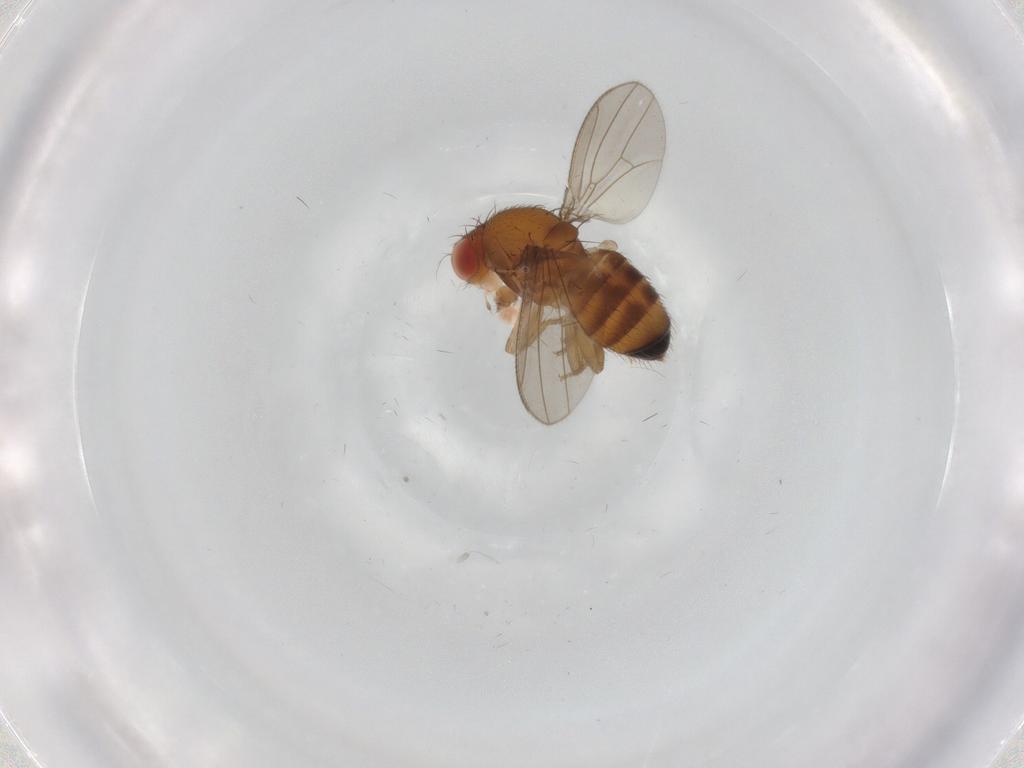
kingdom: Animalia
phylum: Arthropoda
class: Insecta
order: Diptera
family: Drosophilidae
